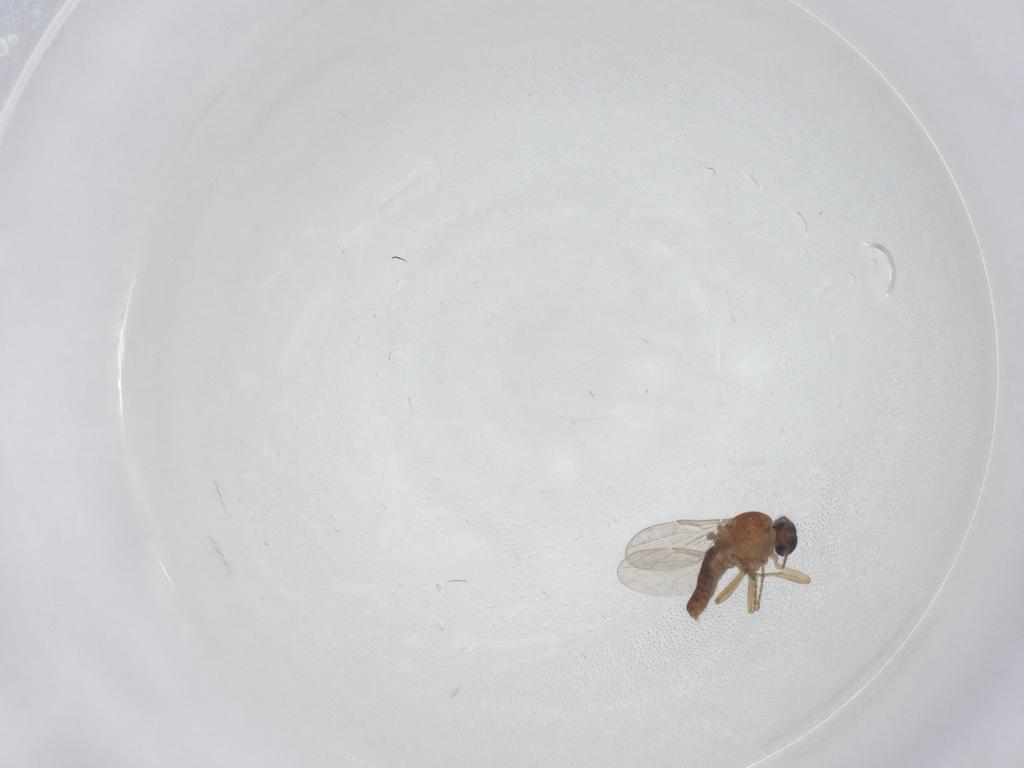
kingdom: Animalia
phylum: Arthropoda
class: Insecta
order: Diptera
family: Ceratopogonidae
